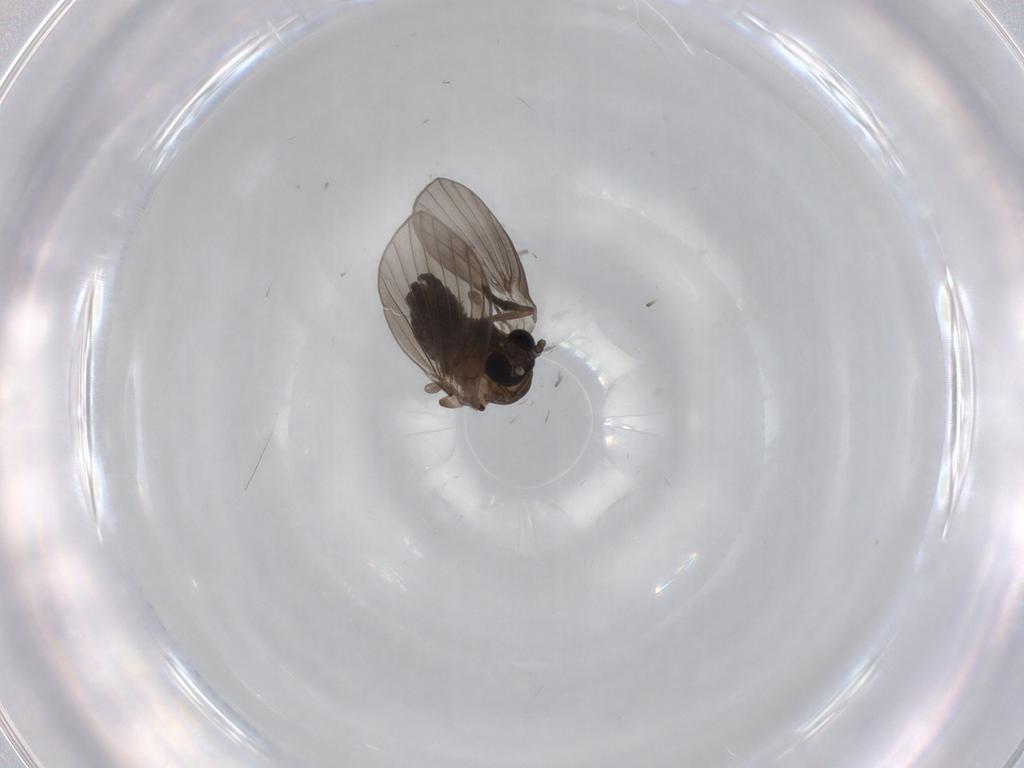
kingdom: Animalia
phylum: Arthropoda
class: Insecta
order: Diptera
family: Psychodidae
